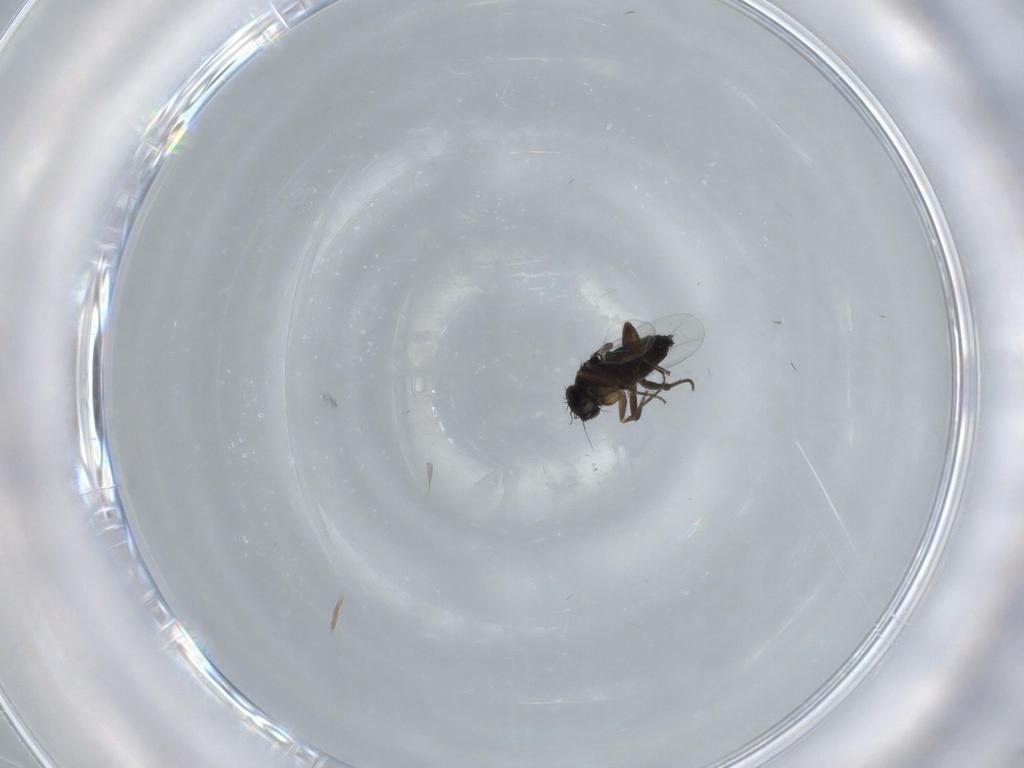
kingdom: Animalia
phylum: Arthropoda
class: Insecta
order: Diptera
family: Phoridae
